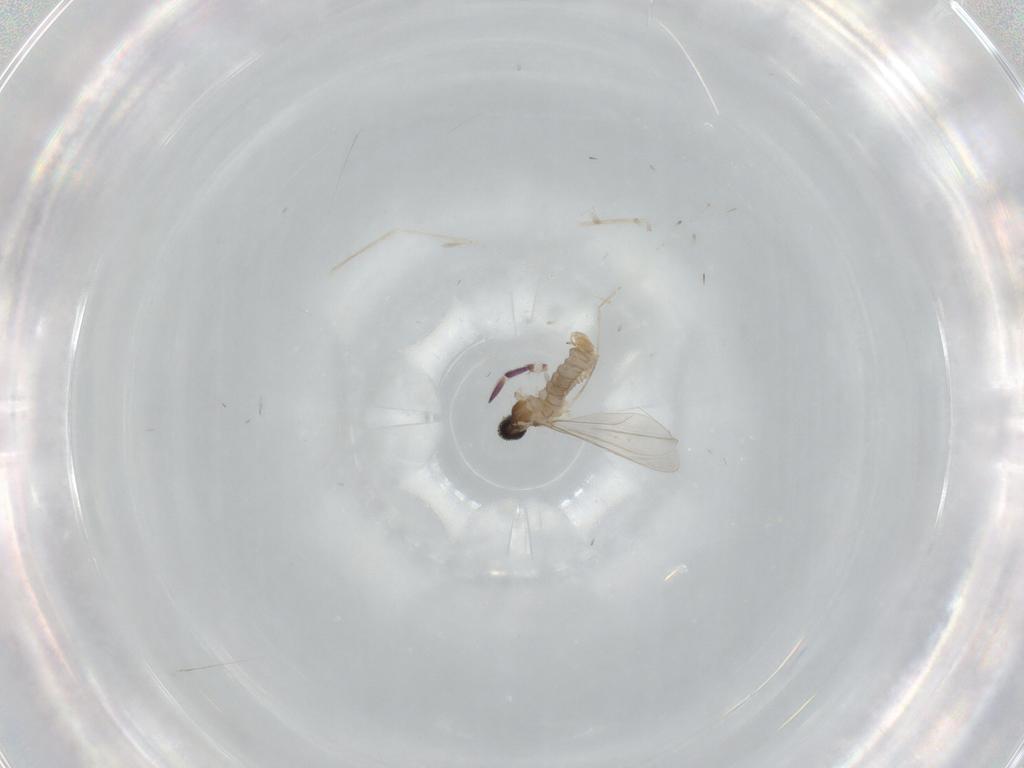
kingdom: Animalia
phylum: Arthropoda
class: Insecta
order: Diptera
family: Cecidomyiidae
